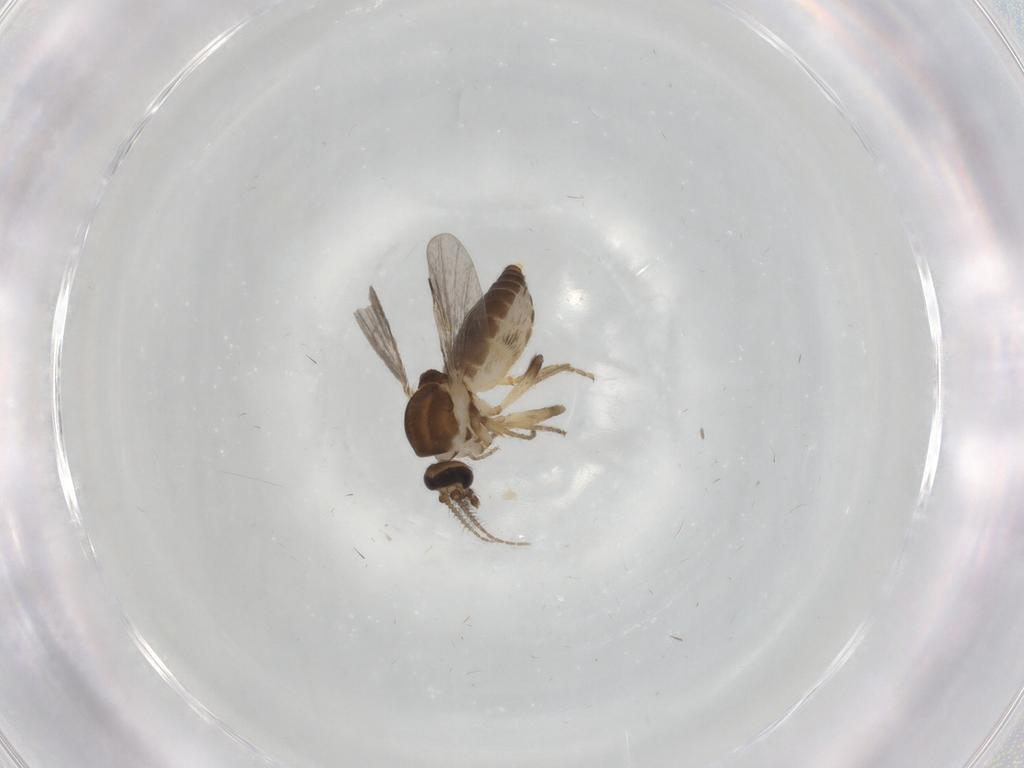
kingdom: Animalia
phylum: Arthropoda
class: Insecta
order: Diptera
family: Ceratopogonidae
